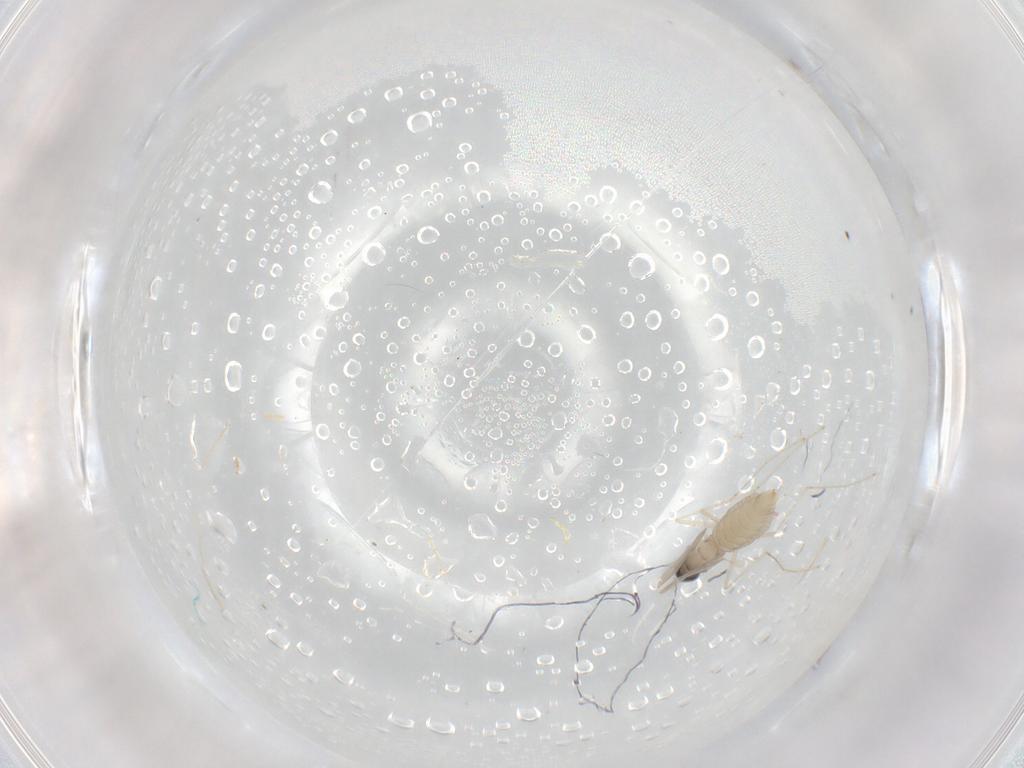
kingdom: Animalia
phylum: Arthropoda
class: Insecta
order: Diptera
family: Cecidomyiidae
